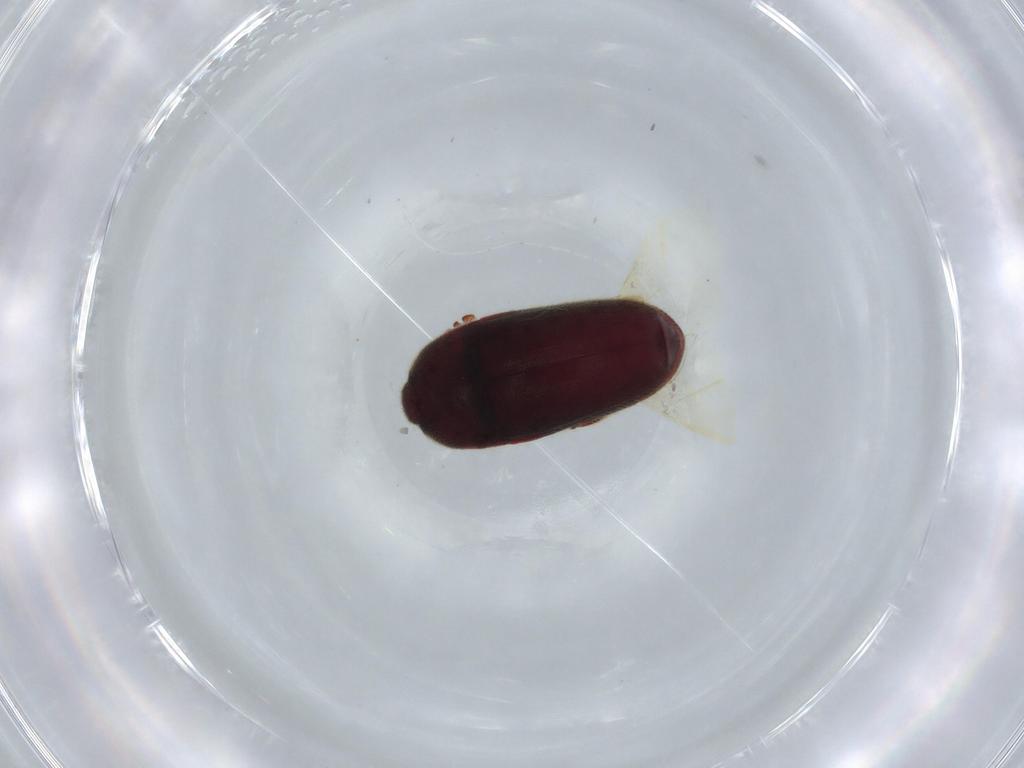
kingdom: Animalia
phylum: Arthropoda
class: Insecta
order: Coleoptera
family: Throscidae
